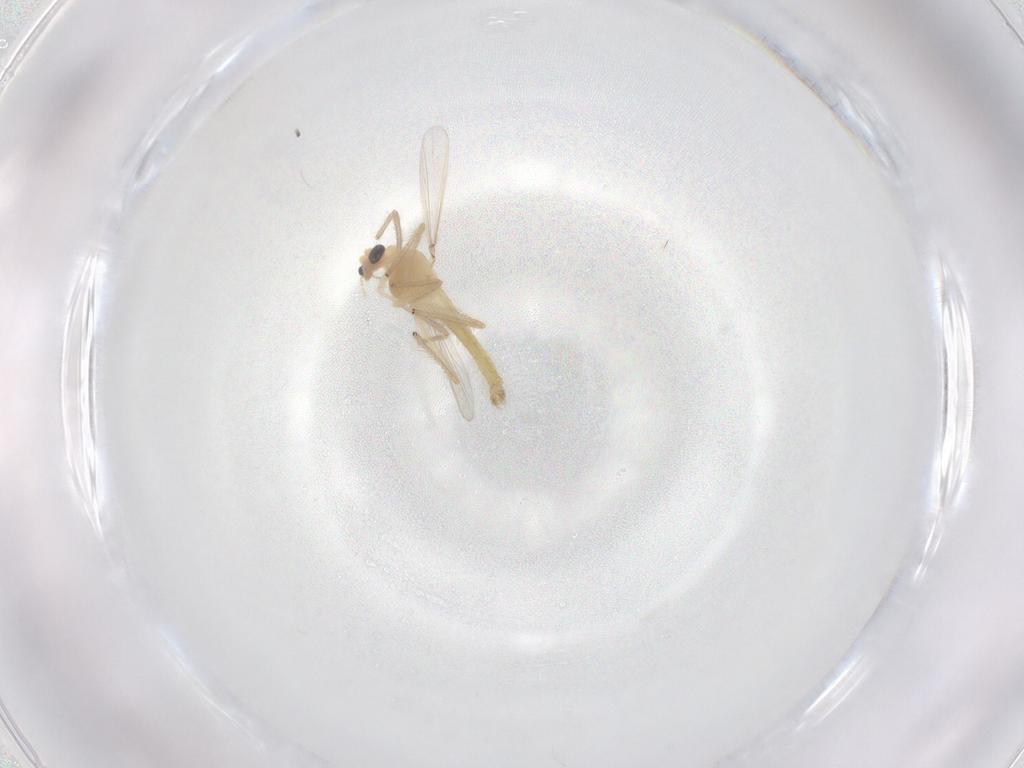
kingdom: Animalia
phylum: Arthropoda
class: Insecta
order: Diptera
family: Chironomidae
